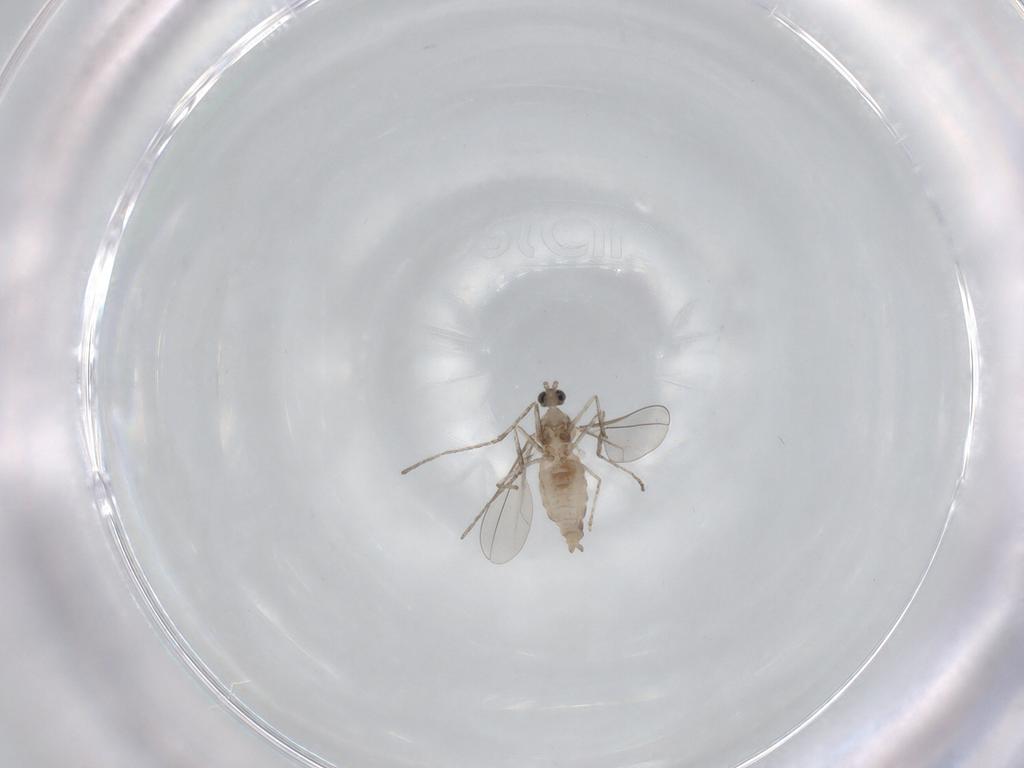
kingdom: Animalia
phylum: Arthropoda
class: Insecta
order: Diptera
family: Cecidomyiidae
